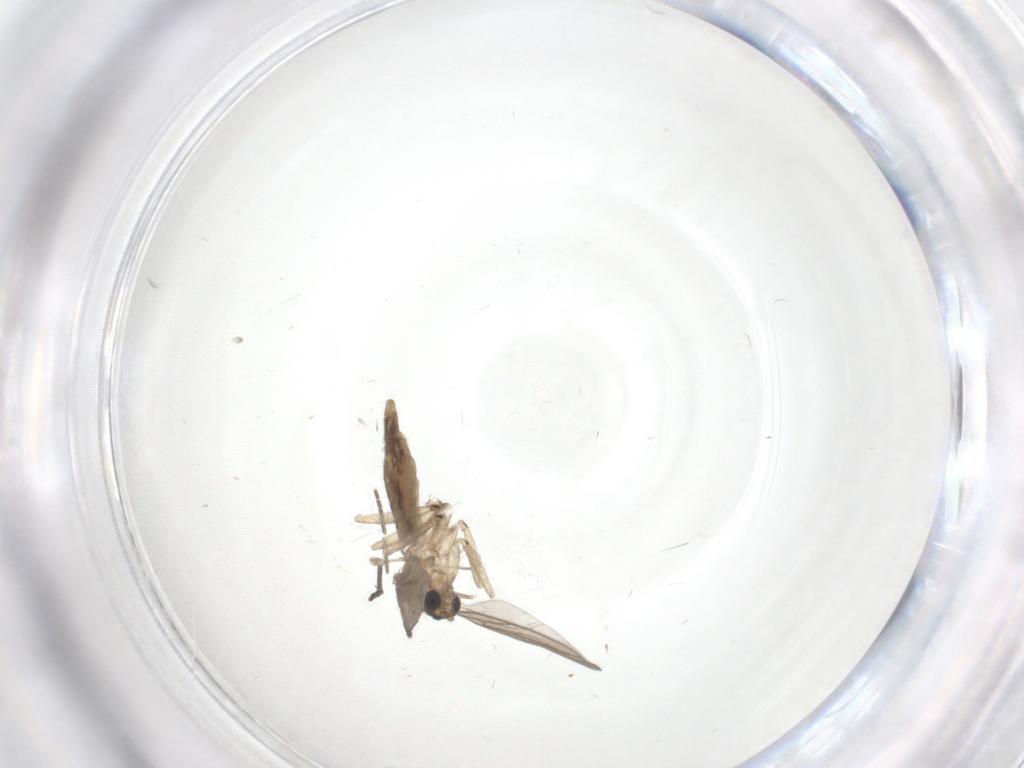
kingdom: Animalia
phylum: Arthropoda
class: Insecta
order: Diptera
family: Sciaridae
